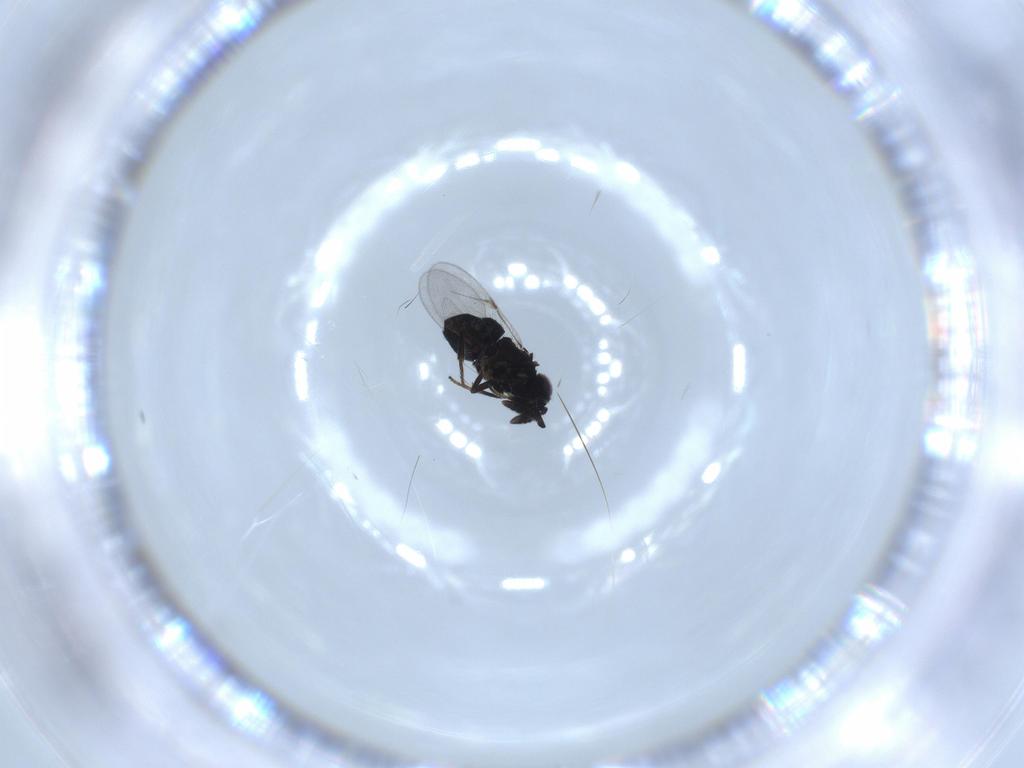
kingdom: Animalia
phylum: Arthropoda
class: Insecta
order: Hymenoptera
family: Encyrtidae
